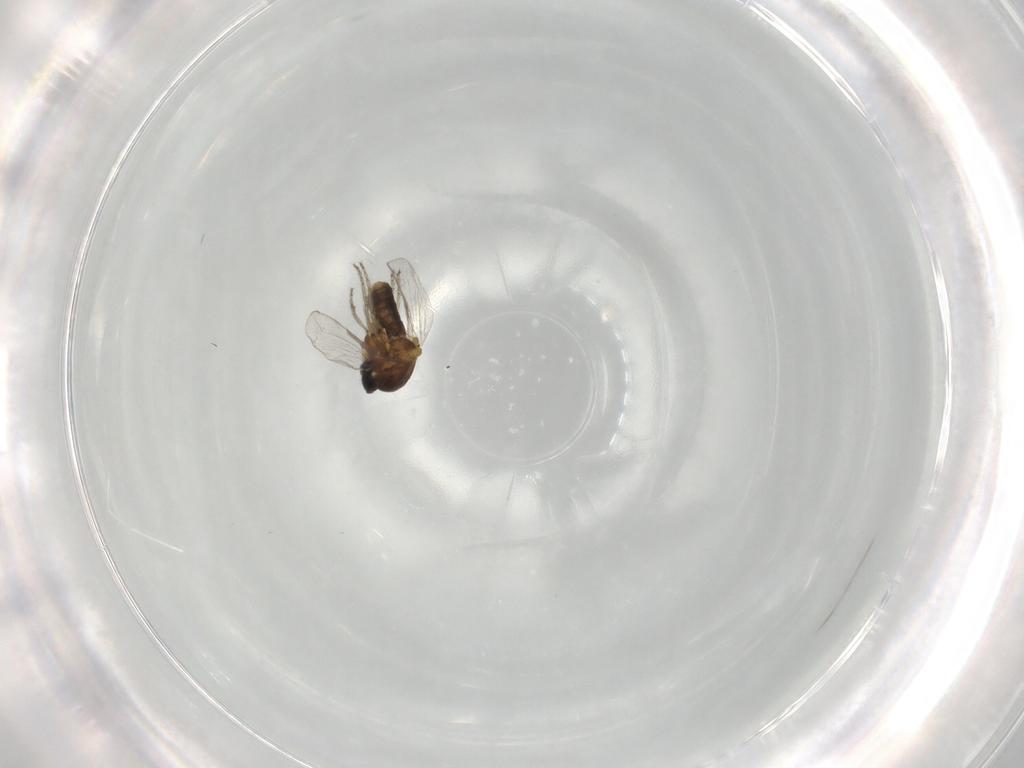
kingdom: Animalia
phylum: Arthropoda
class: Insecta
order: Diptera
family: Ceratopogonidae
